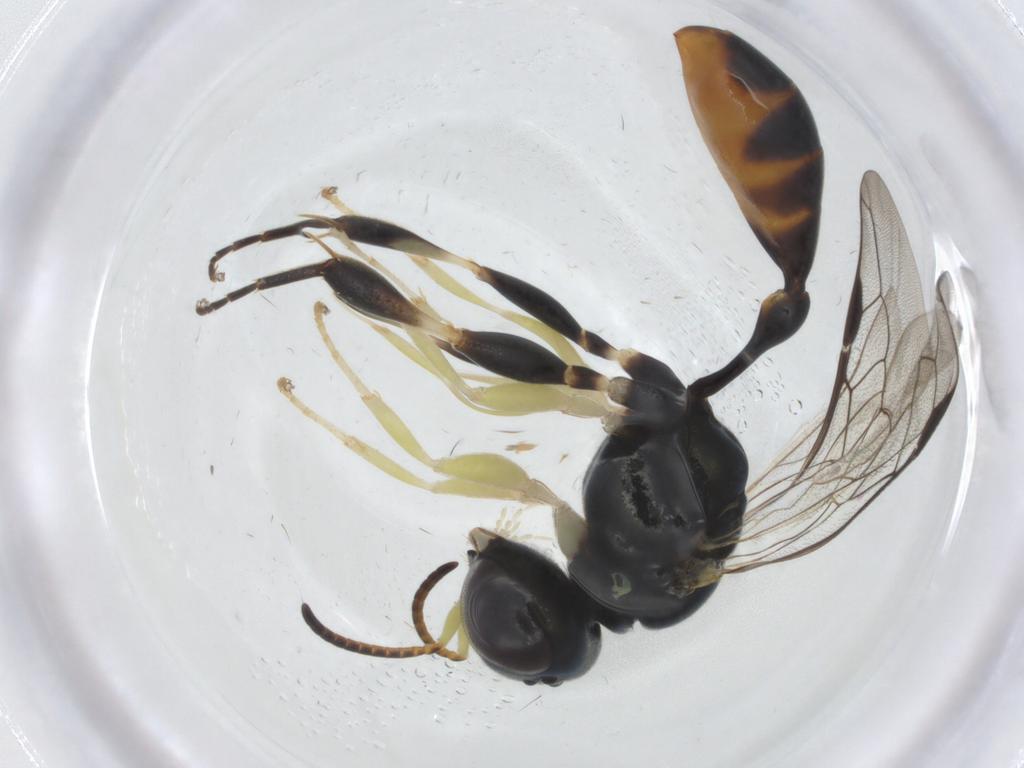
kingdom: Animalia
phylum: Arthropoda
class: Insecta
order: Hymenoptera
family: Crabronidae
